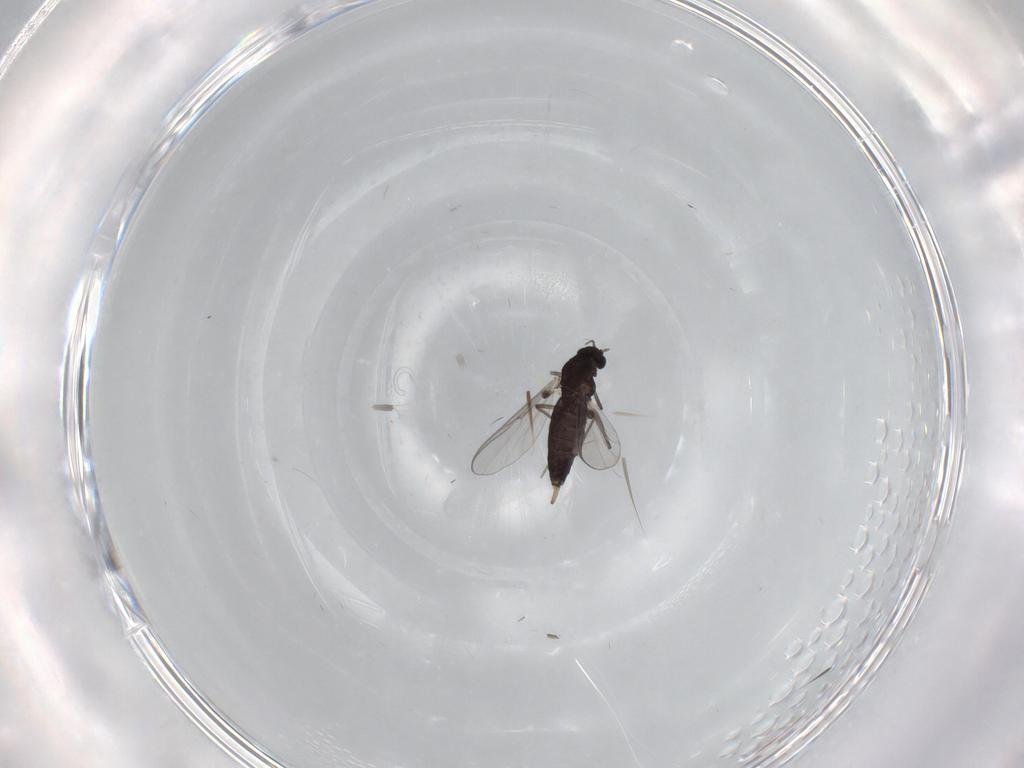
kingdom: Animalia
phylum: Arthropoda
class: Insecta
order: Diptera
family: Chironomidae
